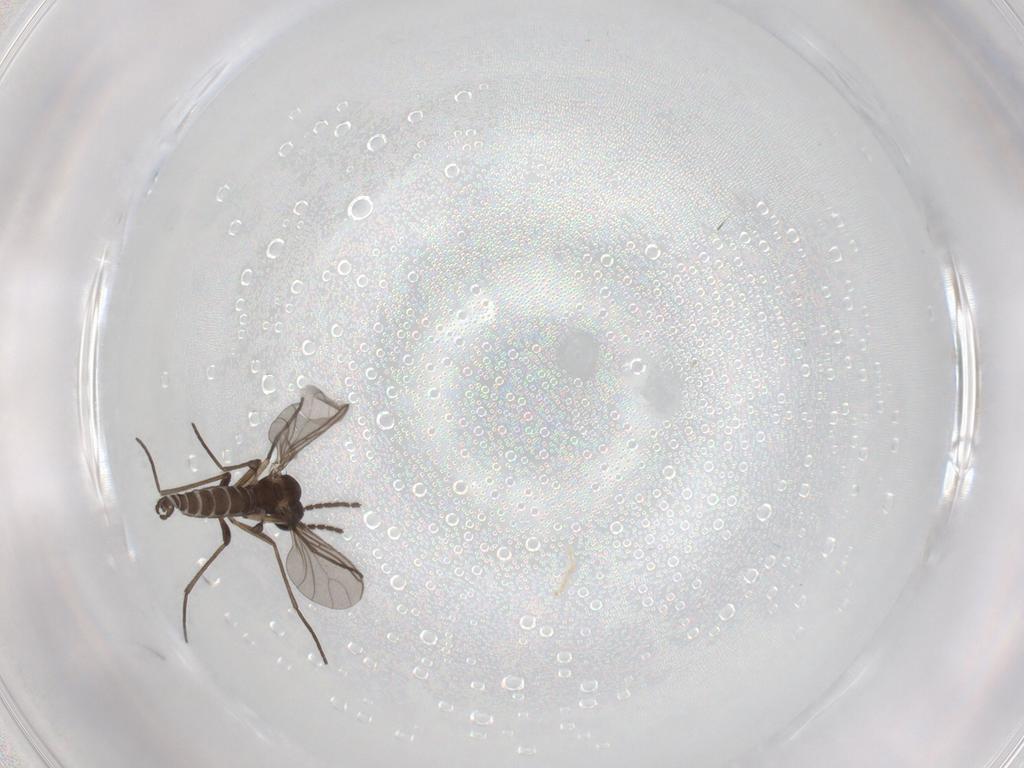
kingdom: Animalia
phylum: Arthropoda
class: Insecta
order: Diptera
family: Sciaridae
